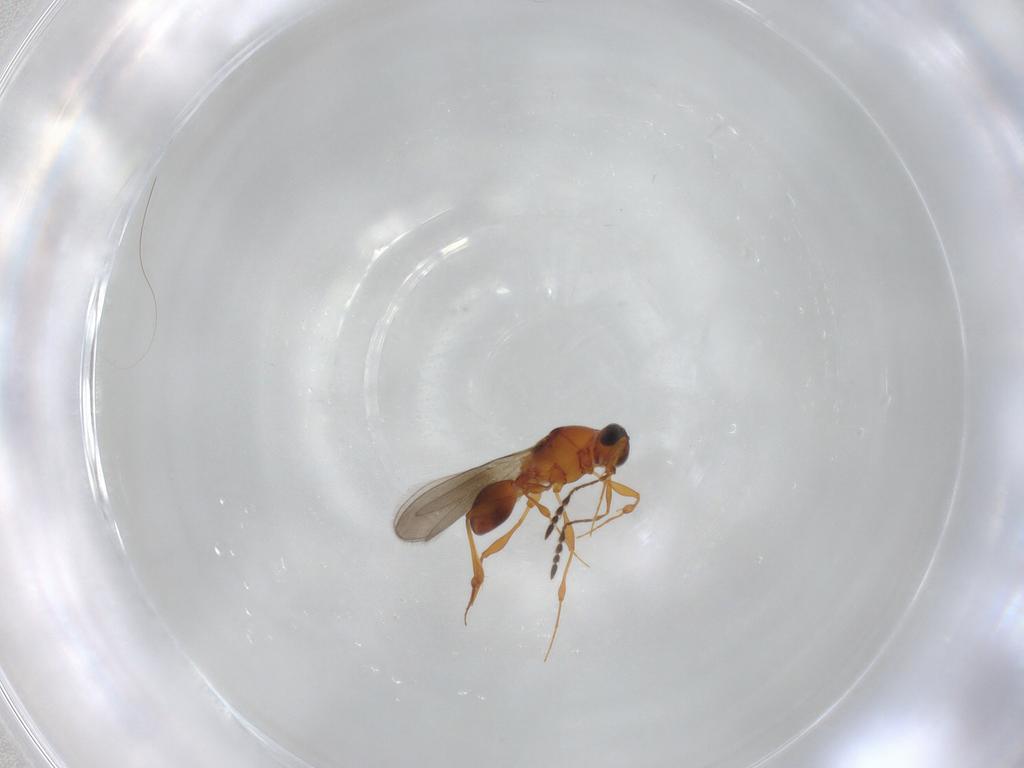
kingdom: Animalia
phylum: Arthropoda
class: Insecta
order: Hymenoptera
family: Platygastridae
